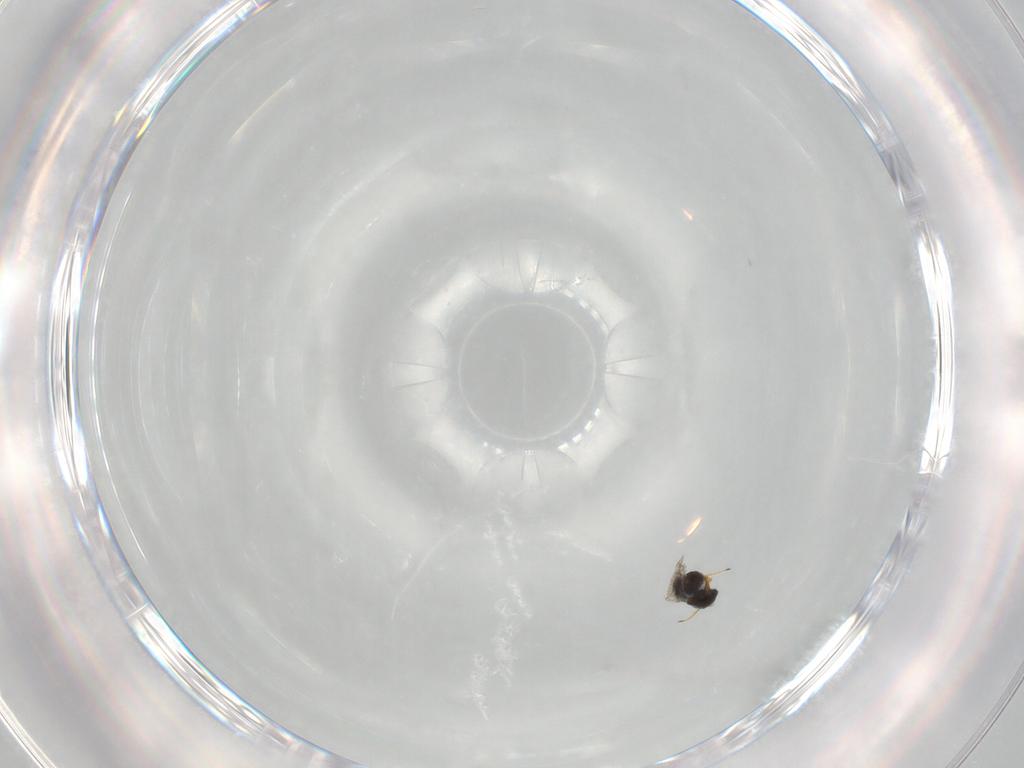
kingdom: Animalia
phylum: Arthropoda
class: Insecta
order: Hymenoptera
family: Platygastridae
